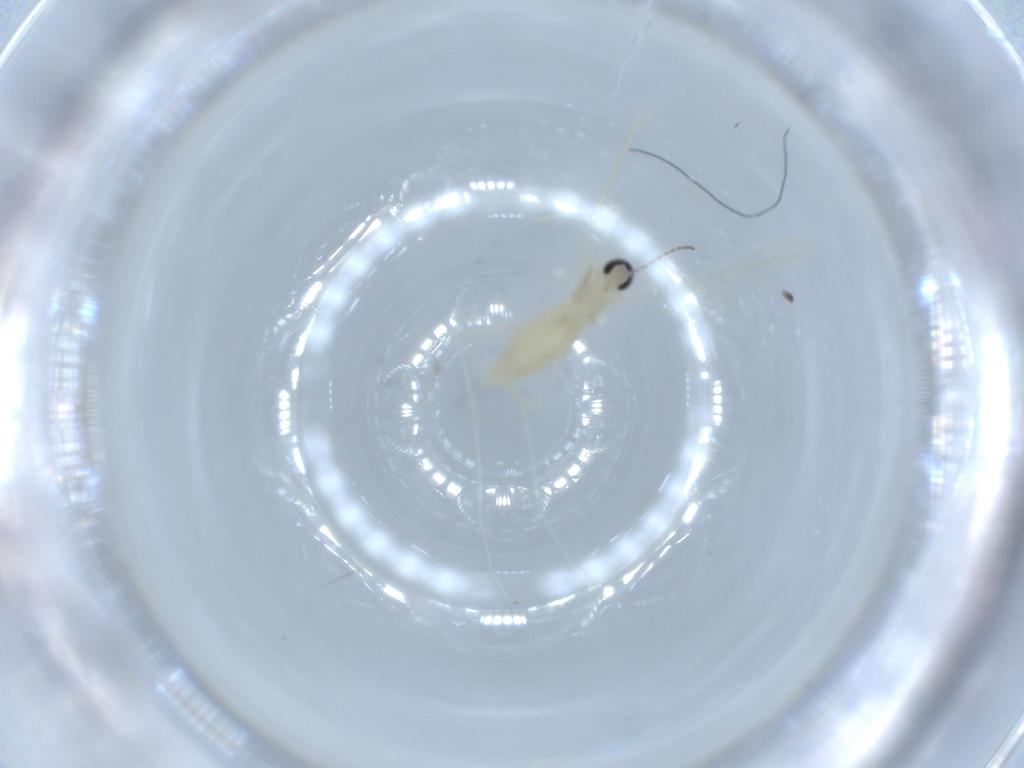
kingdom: Animalia
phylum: Arthropoda
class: Insecta
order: Diptera
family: Cecidomyiidae
